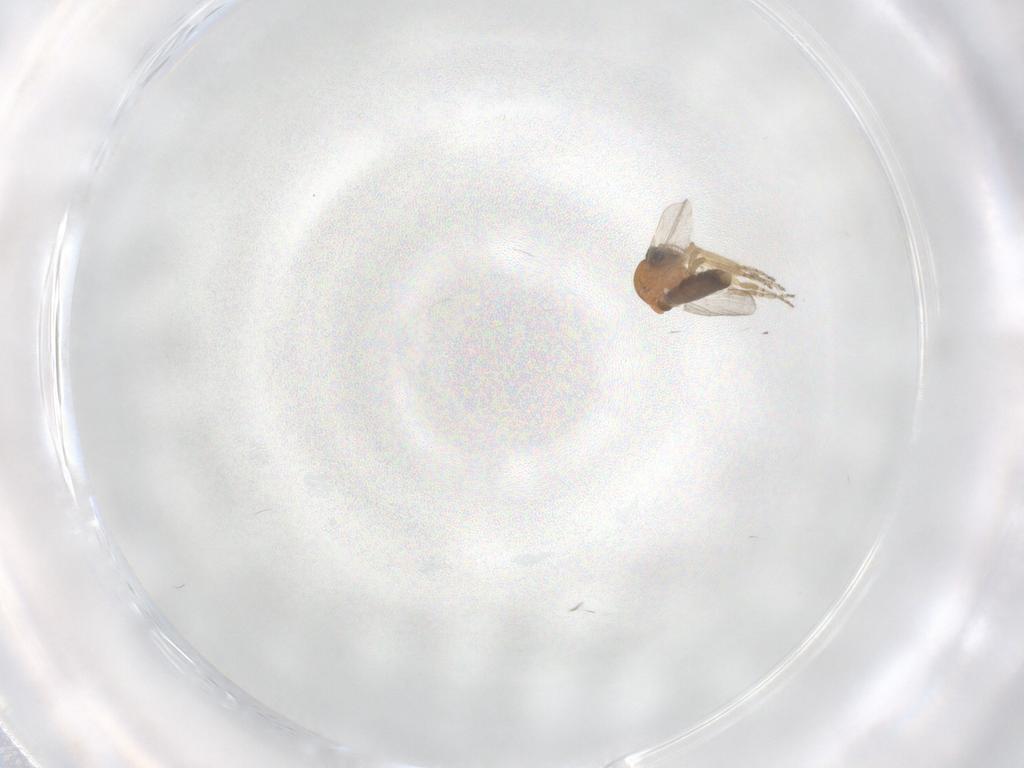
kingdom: Animalia
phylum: Arthropoda
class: Insecta
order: Diptera
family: Ceratopogonidae
